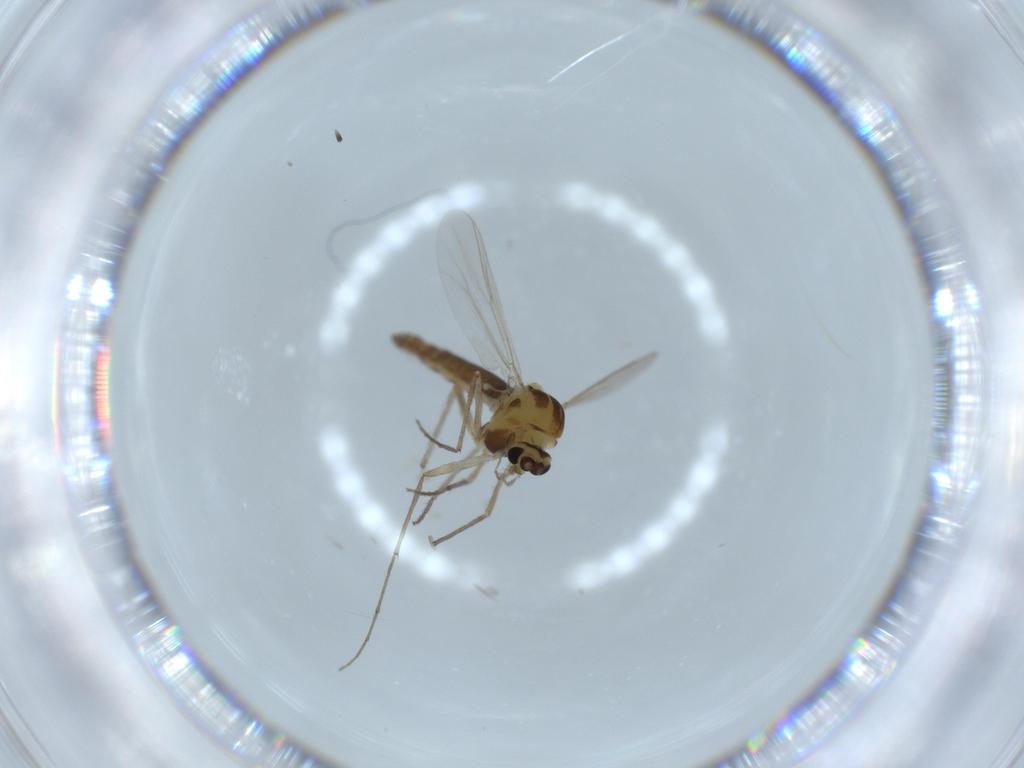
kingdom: Animalia
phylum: Arthropoda
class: Insecta
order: Diptera
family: Chironomidae
